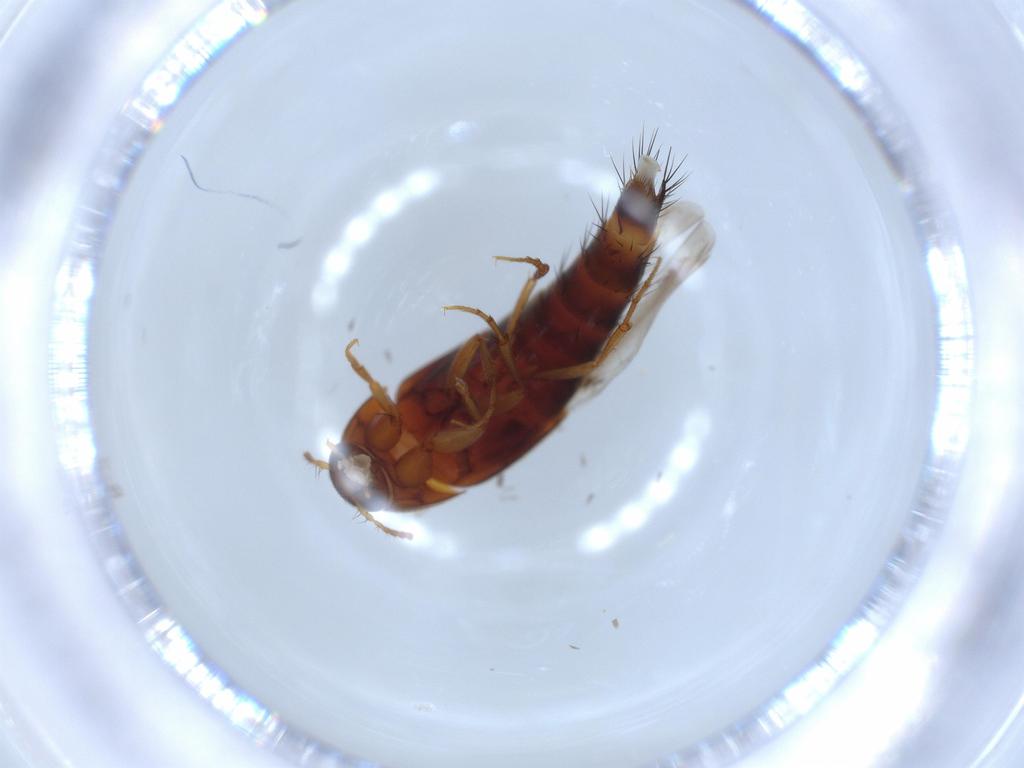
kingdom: Animalia
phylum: Arthropoda
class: Insecta
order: Coleoptera
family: Staphylinidae
